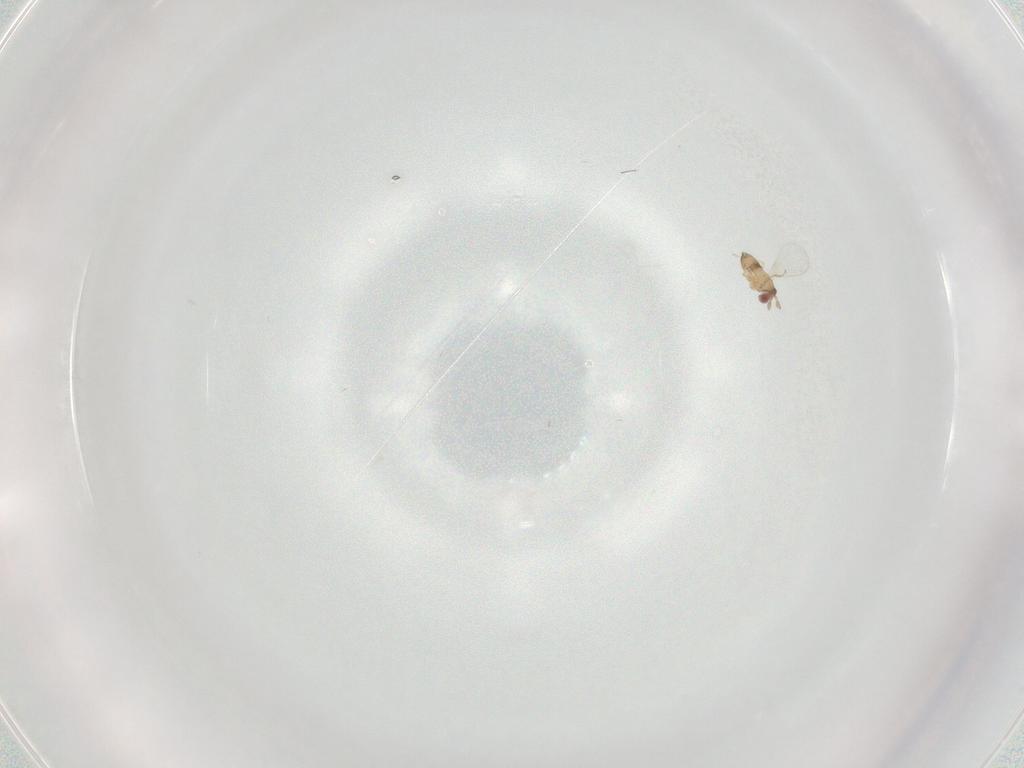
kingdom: Animalia
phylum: Arthropoda
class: Insecta
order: Hymenoptera
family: Trichogrammatidae
